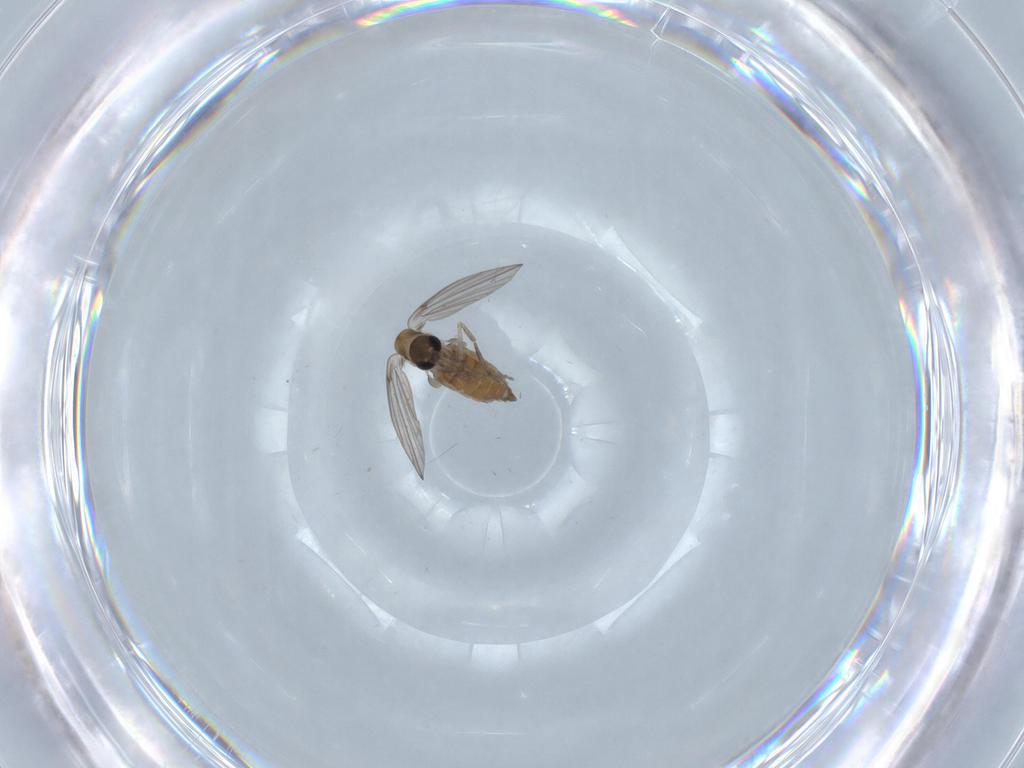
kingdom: Animalia
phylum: Arthropoda
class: Insecta
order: Diptera
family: Psychodidae
